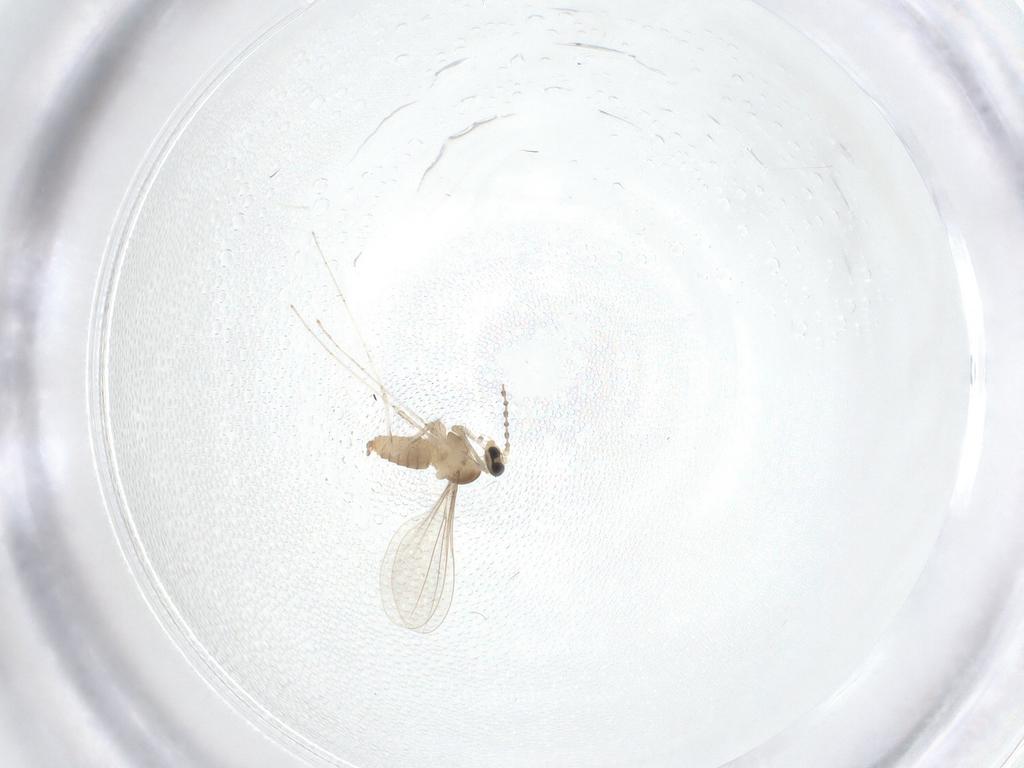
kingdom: Animalia
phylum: Arthropoda
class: Insecta
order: Diptera
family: Cecidomyiidae
